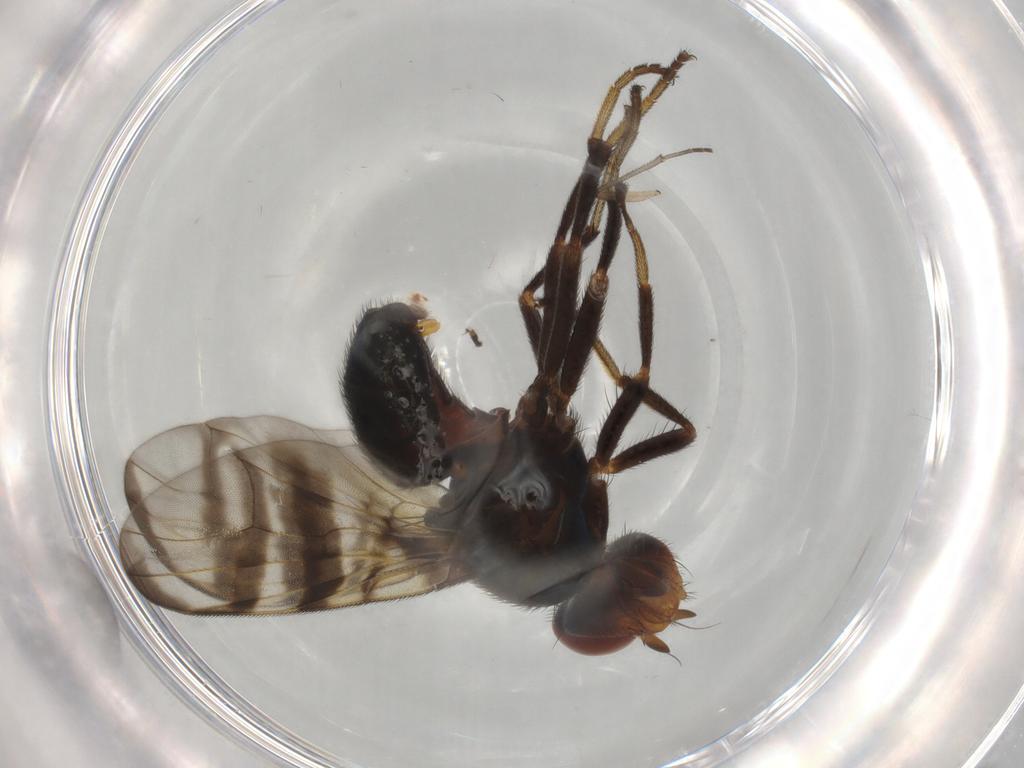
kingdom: Animalia
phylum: Arthropoda
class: Insecta
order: Diptera
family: Platystomatidae
